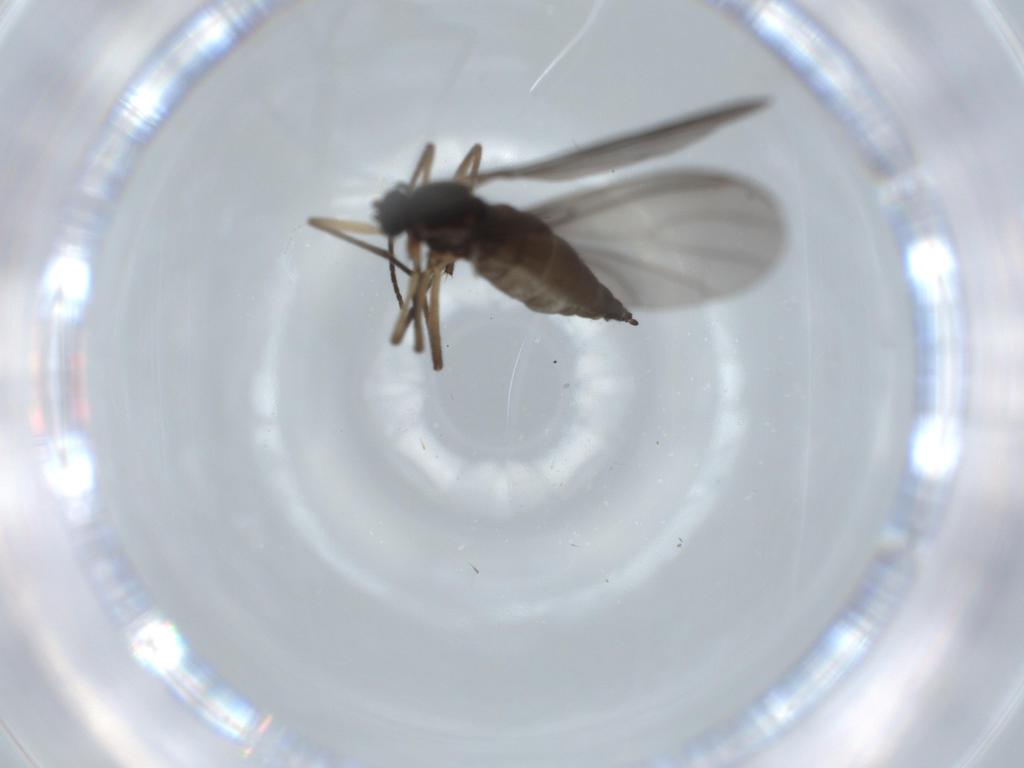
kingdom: Animalia
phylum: Arthropoda
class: Insecta
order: Diptera
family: Sciaridae
